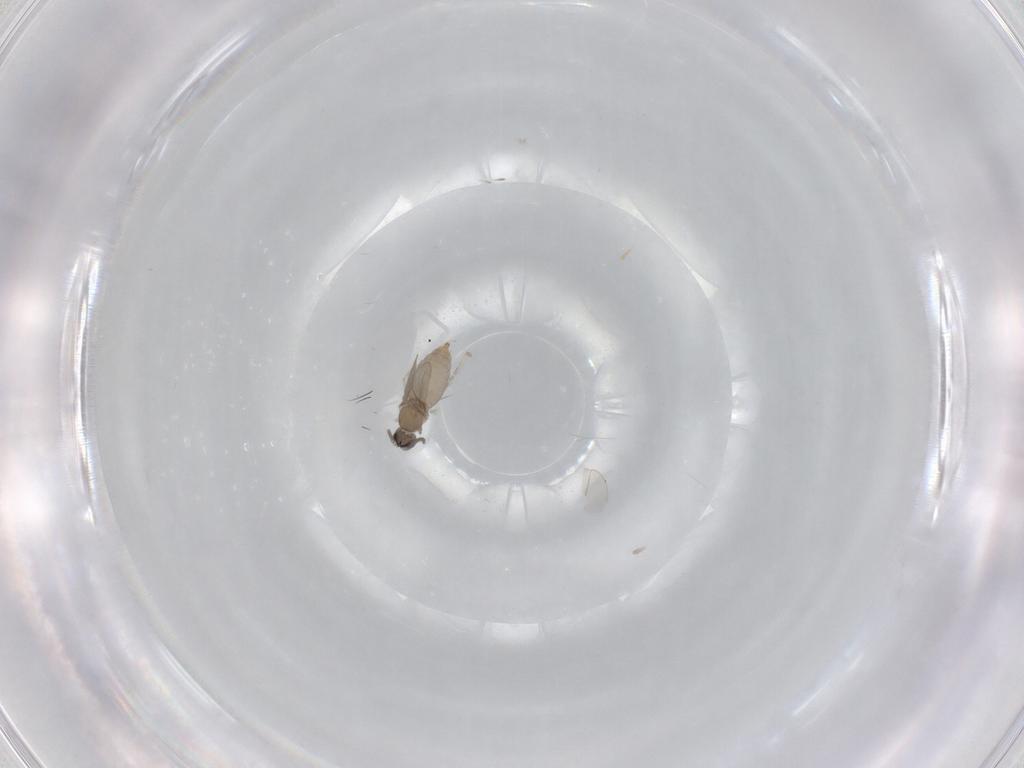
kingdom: Animalia
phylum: Arthropoda
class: Insecta
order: Diptera
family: Cecidomyiidae
